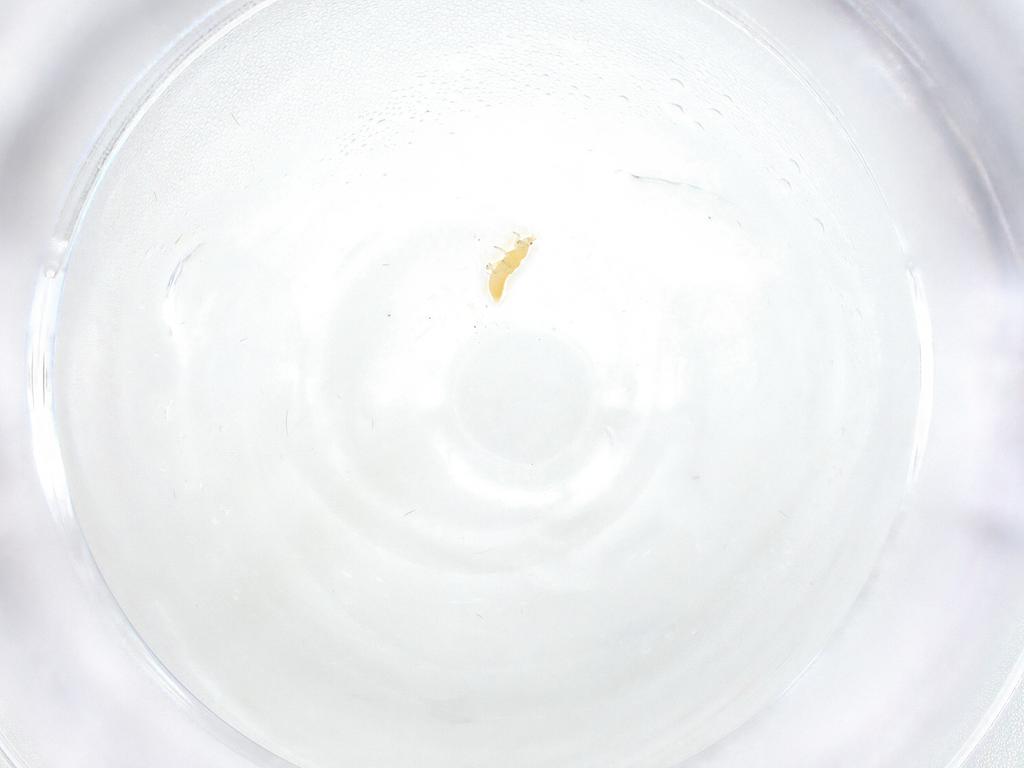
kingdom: Animalia
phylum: Arthropoda
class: Insecta
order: Thysanoptera
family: Thripidae
